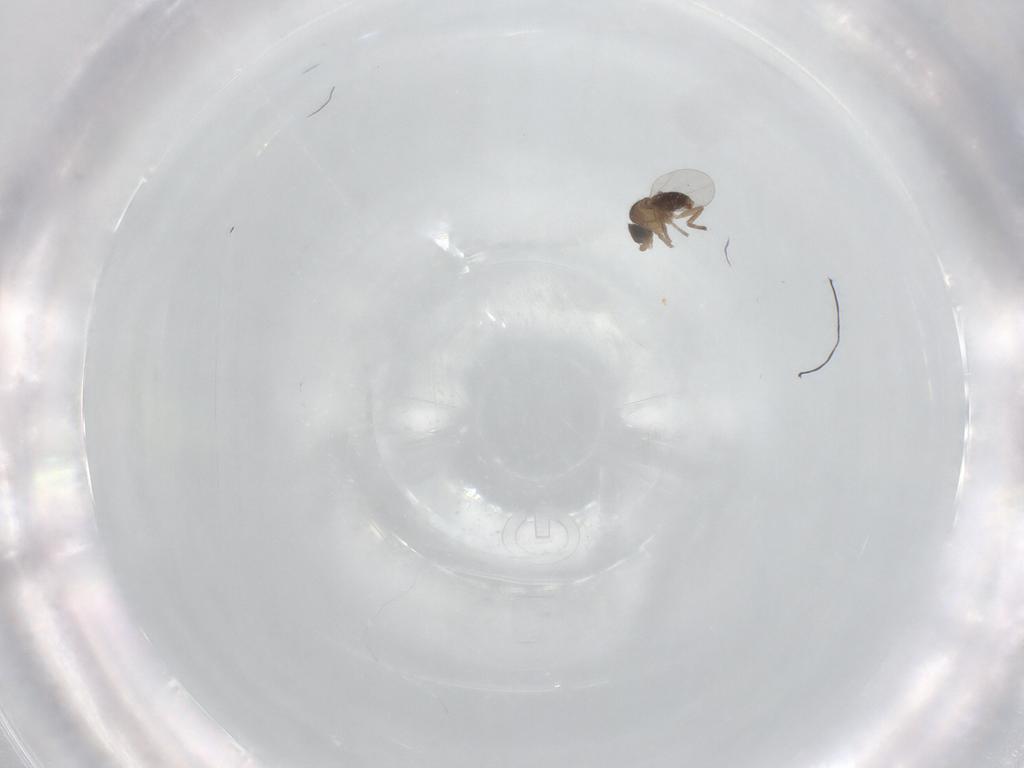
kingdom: Animalia
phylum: Arthropoda
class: Insecta
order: Diptera
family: Phoridae
